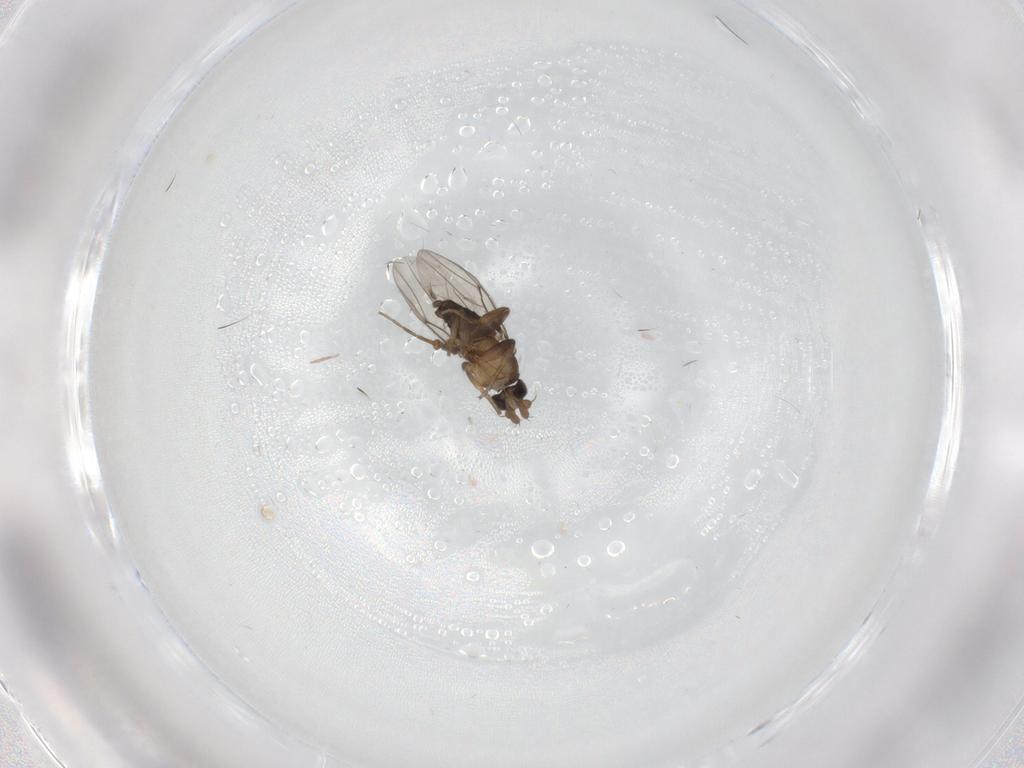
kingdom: Animalia
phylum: Arthropoda
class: Insecta
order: Diptera
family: Phoridae
